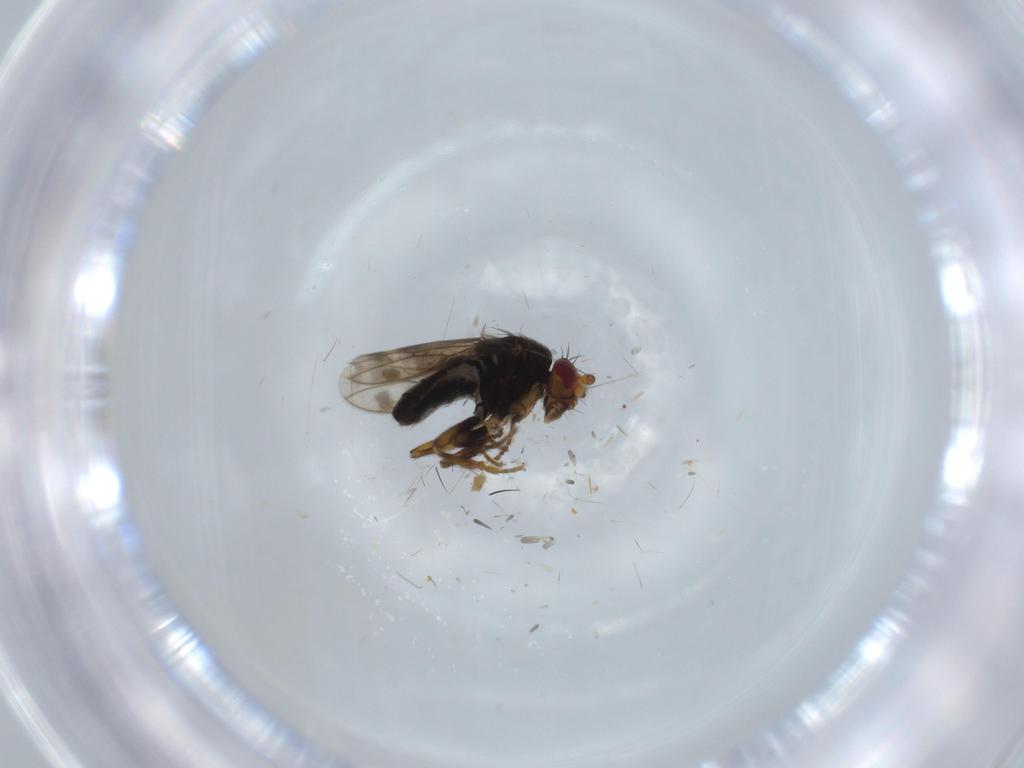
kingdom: Animalia
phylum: Arthropoda
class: Insecta
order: Diptera
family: Sphaeroceridae
